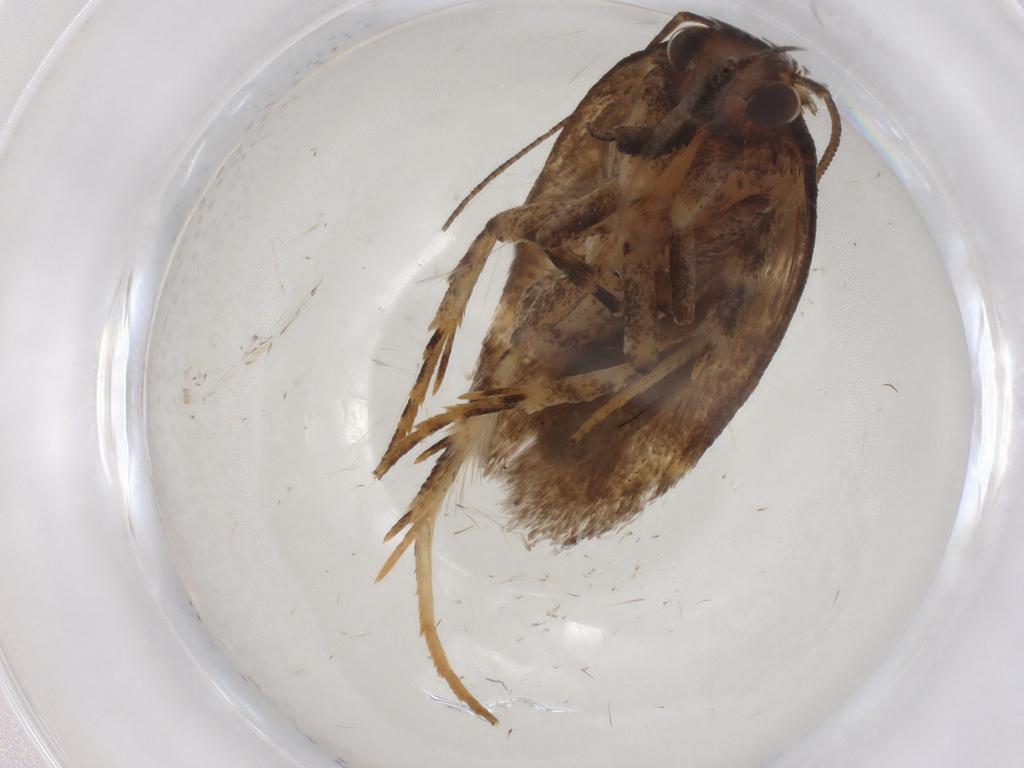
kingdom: Animalia
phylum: Arthropoda
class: Insecta
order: Lepidoptera
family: Gelechiidae
